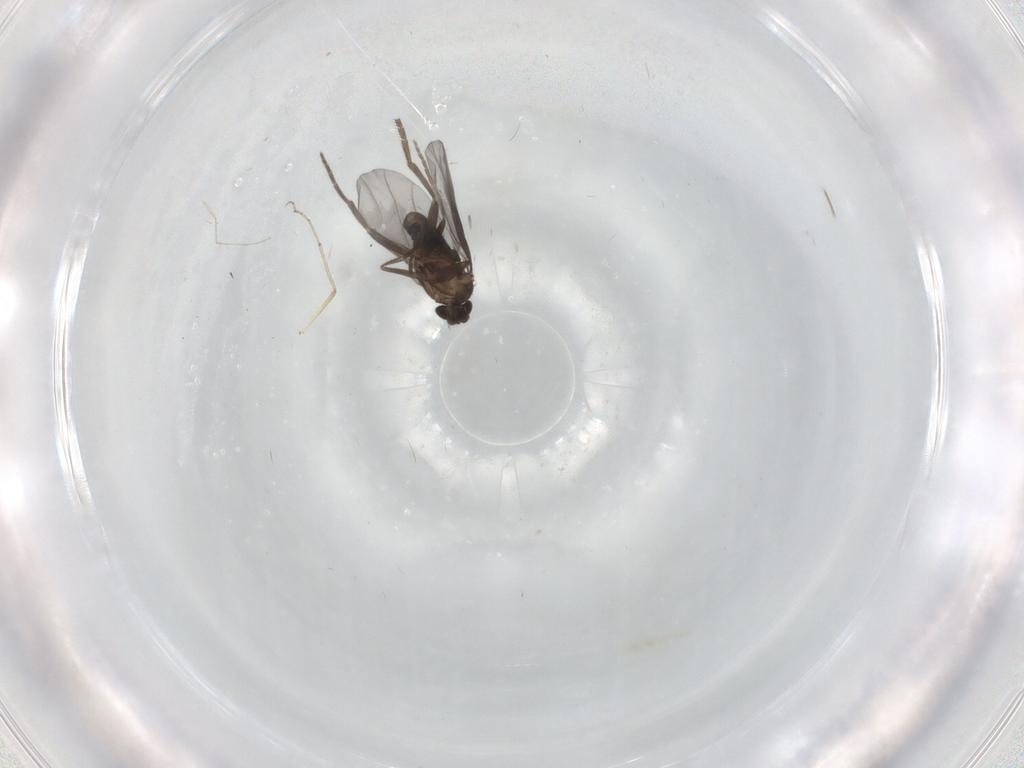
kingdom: Animalia
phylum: Arthropoda
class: Insecta
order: Diptera
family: Phoridae
